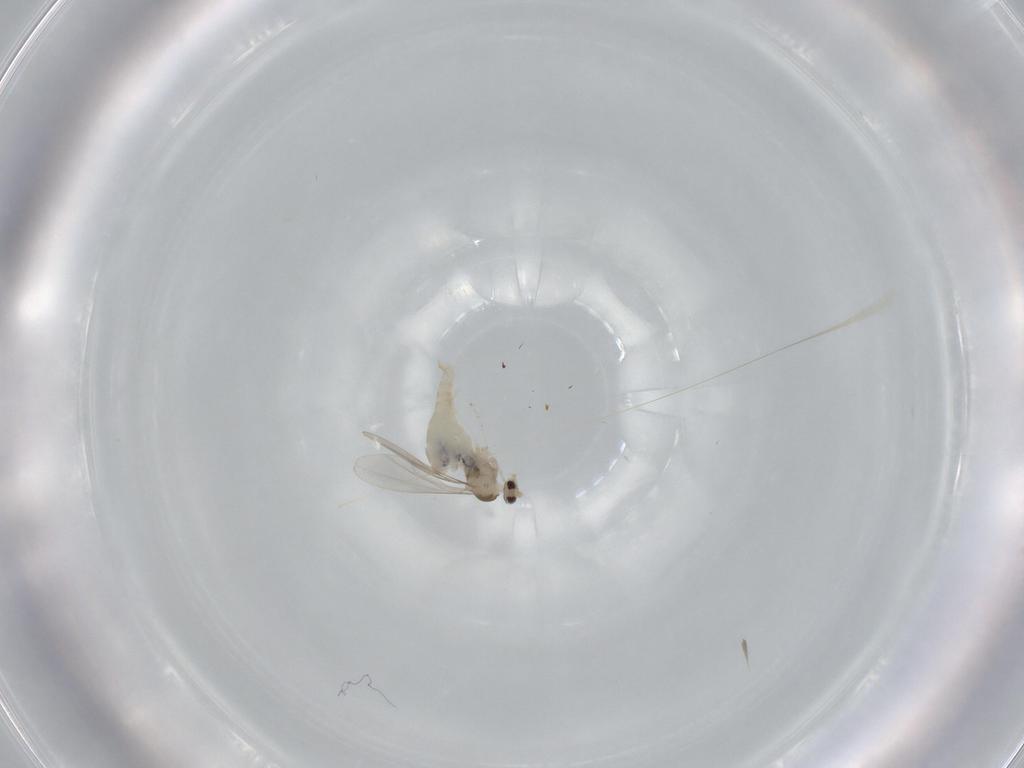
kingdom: Animalia
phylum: Arthropoda
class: Insecta
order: Diptera
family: Cecidomyiidae
